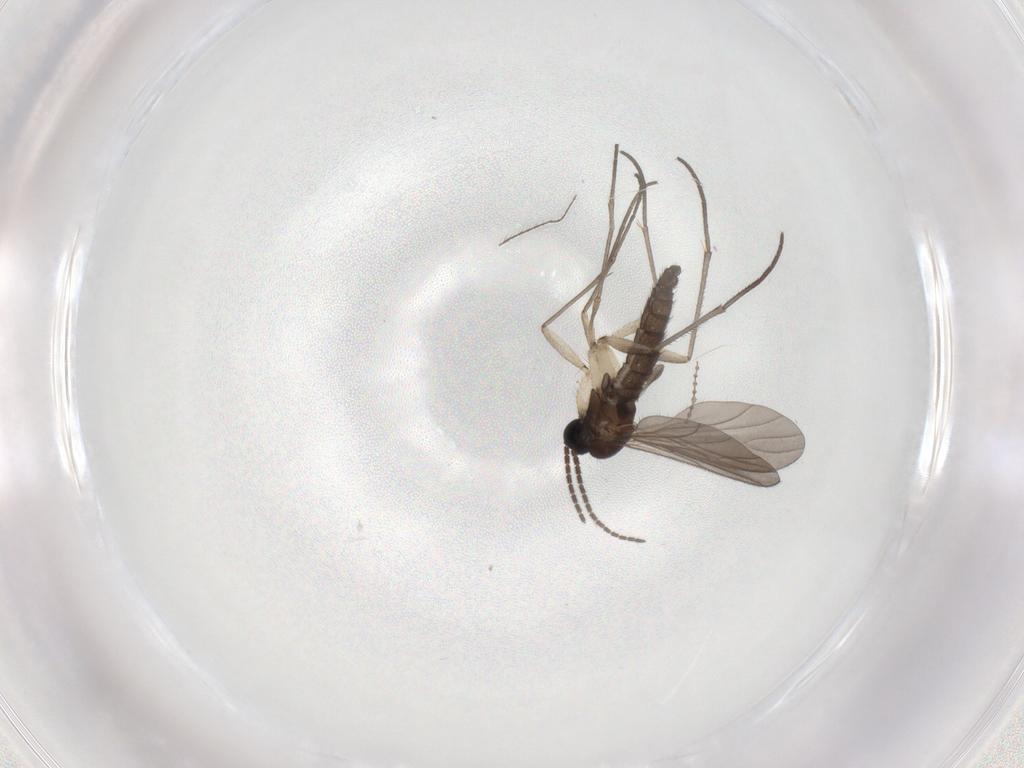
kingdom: Animalia
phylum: Arthropoda
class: Insecta
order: Diptera
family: Sciaridae
